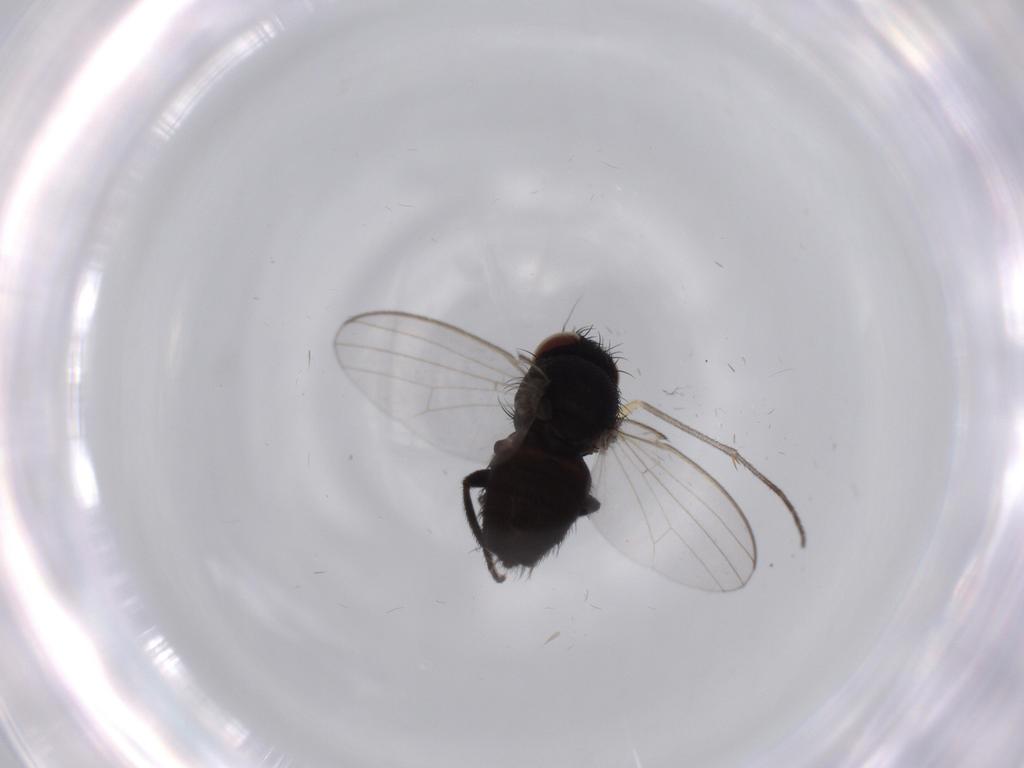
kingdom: Animalia
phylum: Arthropoda
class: Insecta
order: Diptera
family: Milichiidae
